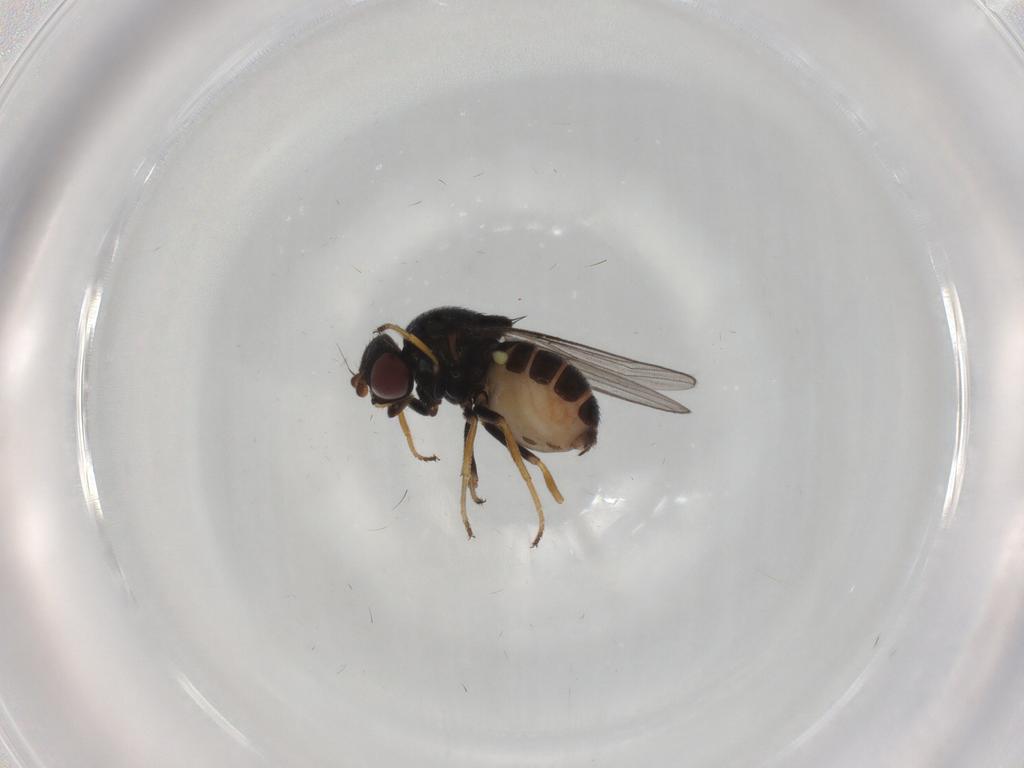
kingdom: Animalia
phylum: Arthropoda
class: Insecta
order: Diptera
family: Chloropidae
